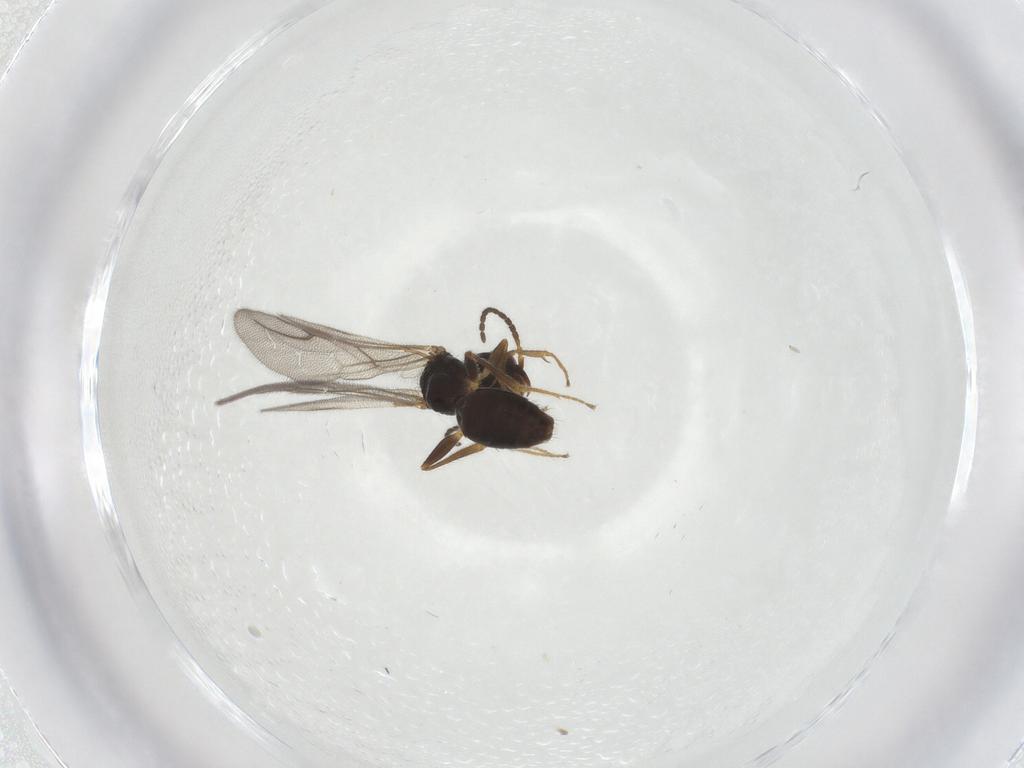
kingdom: Animalia
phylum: Arthropoda
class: Insecta
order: Hymenoptera
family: Bethylidae
